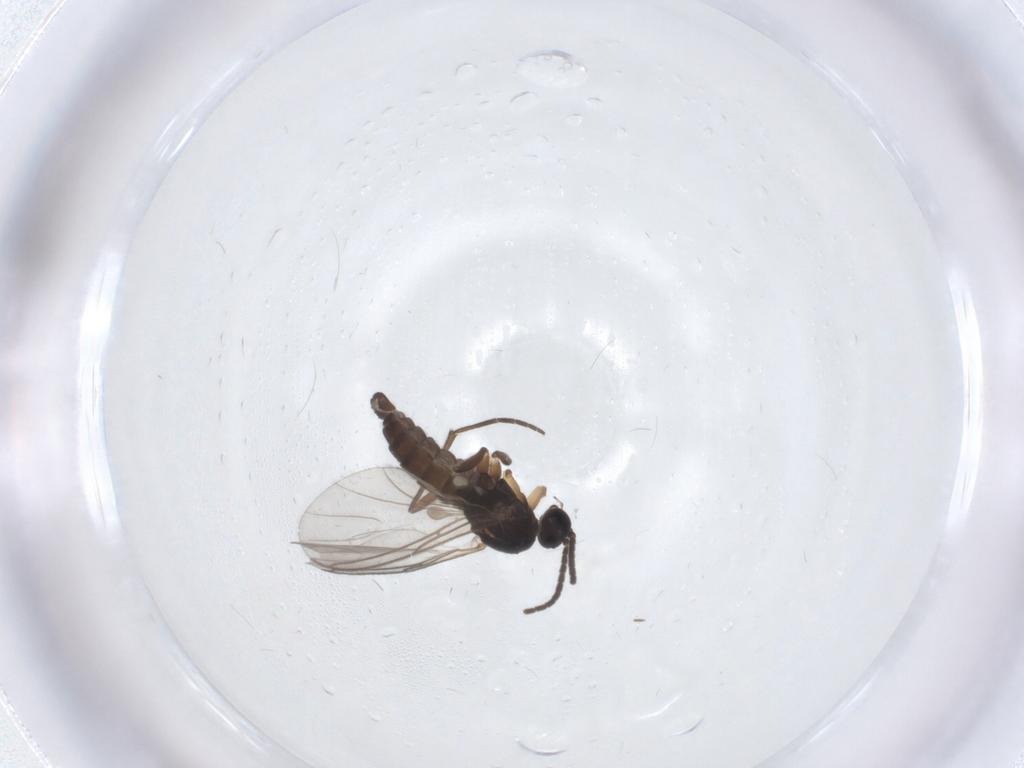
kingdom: Animalia
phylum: Arthropoda
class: Insecta
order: Diptera
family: Sciaridae
